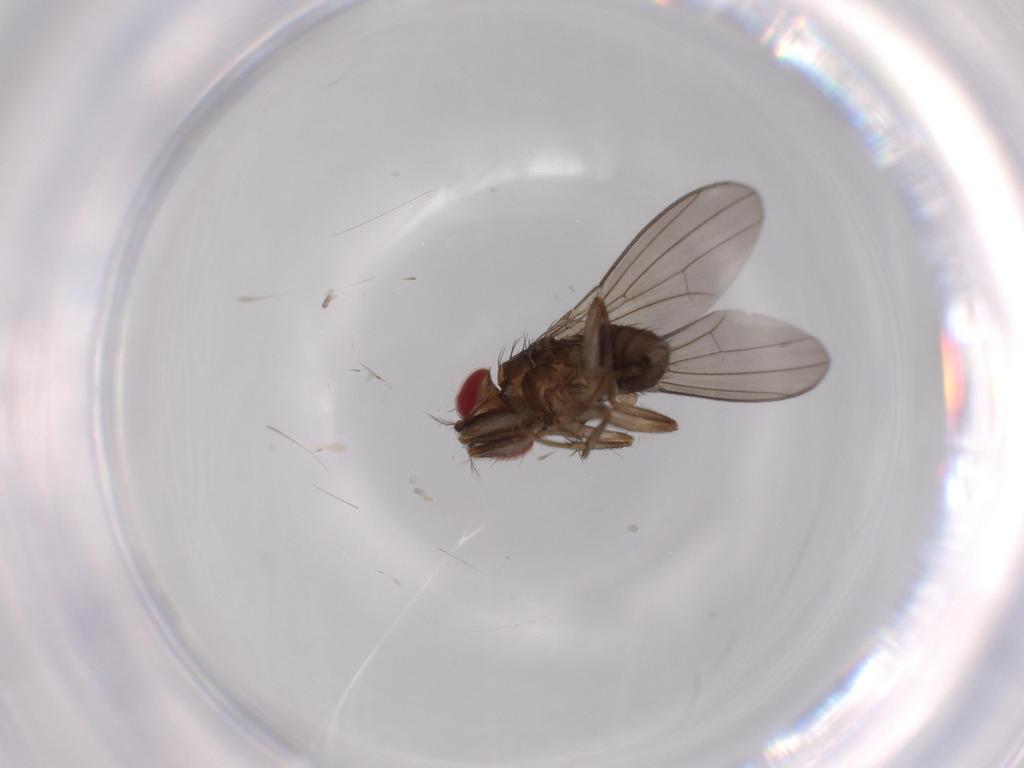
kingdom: Animalia
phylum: Arthropoda
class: Insecta
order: Diptera
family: Drosophilidae
